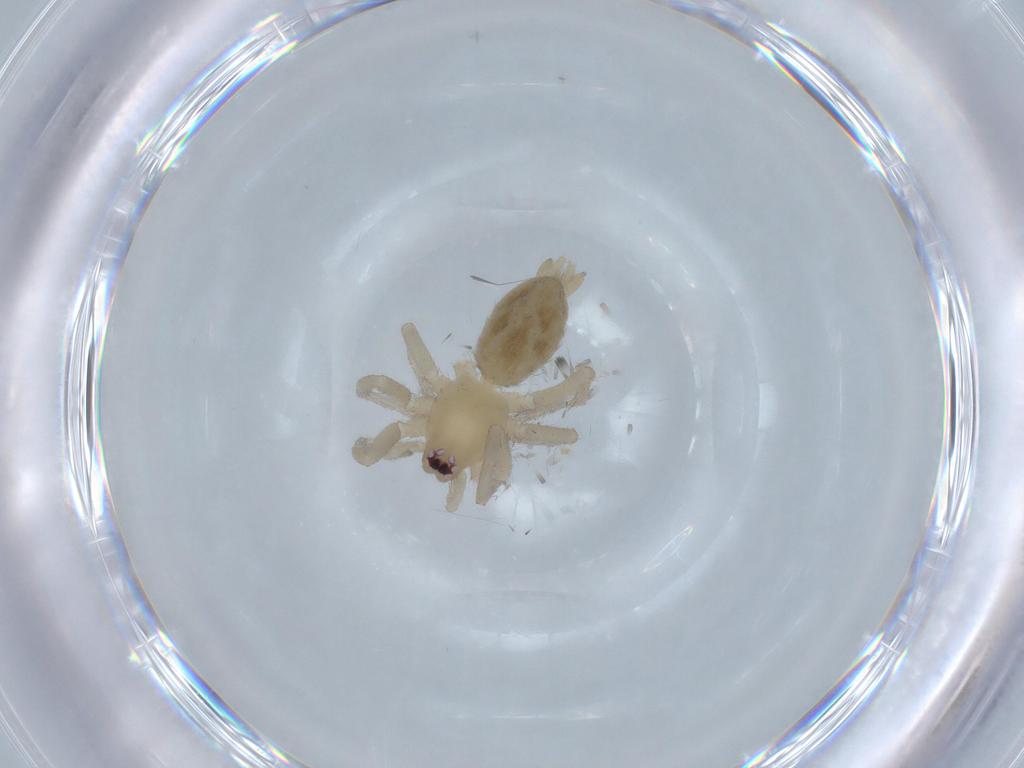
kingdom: Animalia
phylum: Arthropoda
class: Arachnida
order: Araneae
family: Gnaphosidae
